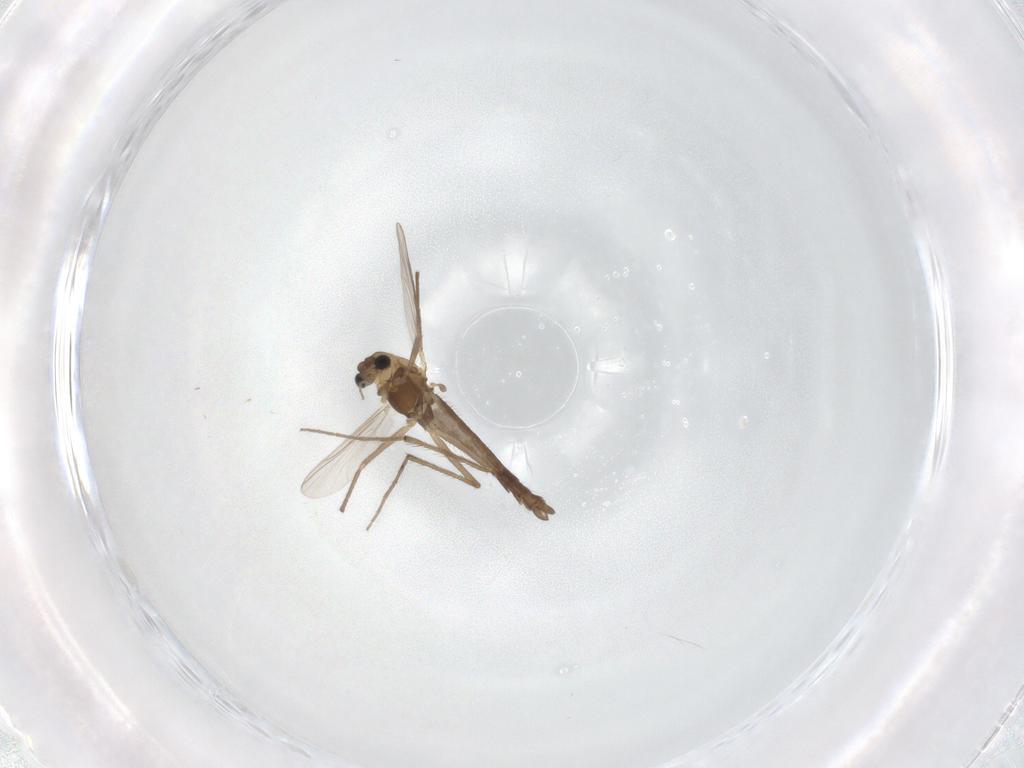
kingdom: Animalia
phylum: Arthropoda
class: Insecta
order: Diptera
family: Chironomidae
